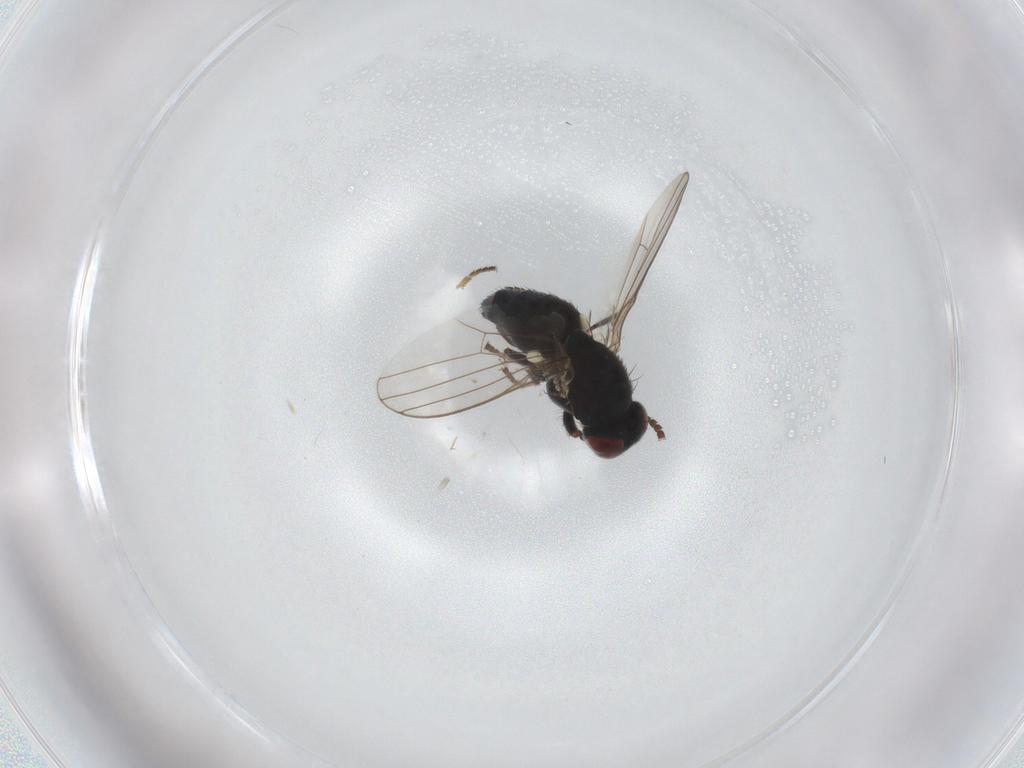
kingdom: Animalia
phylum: Arthropoda
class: Insecta
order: Diptera
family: Chamaemyiidae
